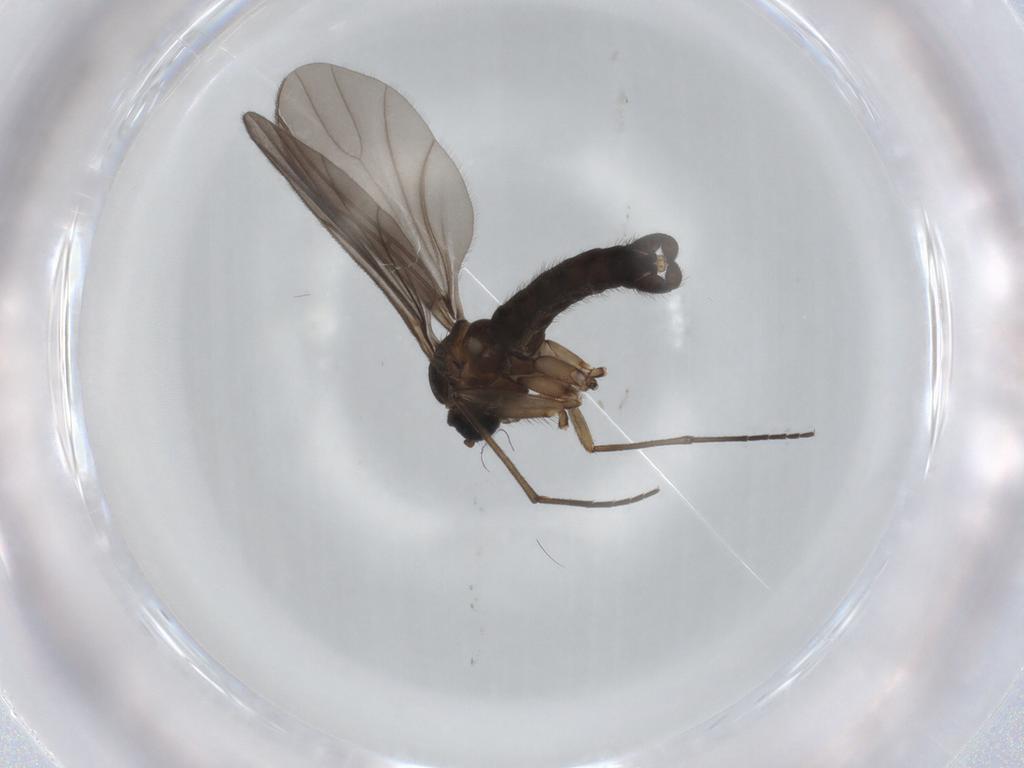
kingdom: Animalia
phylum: Arthropoda
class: Insecta
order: Diptera
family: Sciaridae
